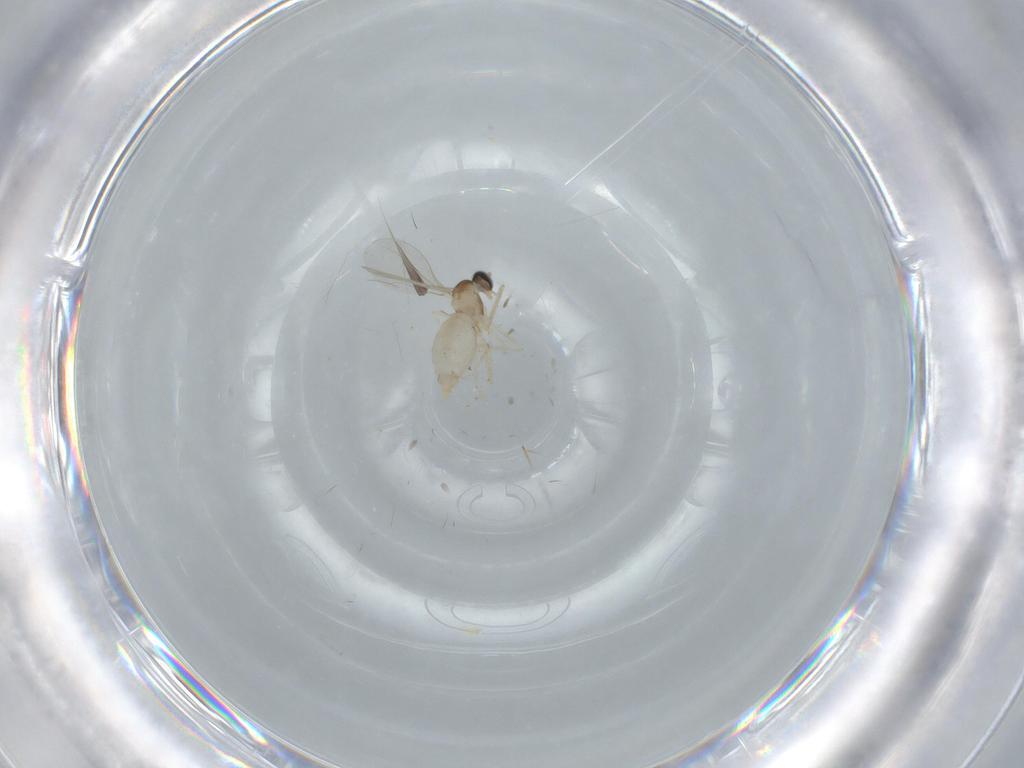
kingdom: Animalia
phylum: Arthropoda
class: Insecta
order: Diptera
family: Cecidomyiidae
